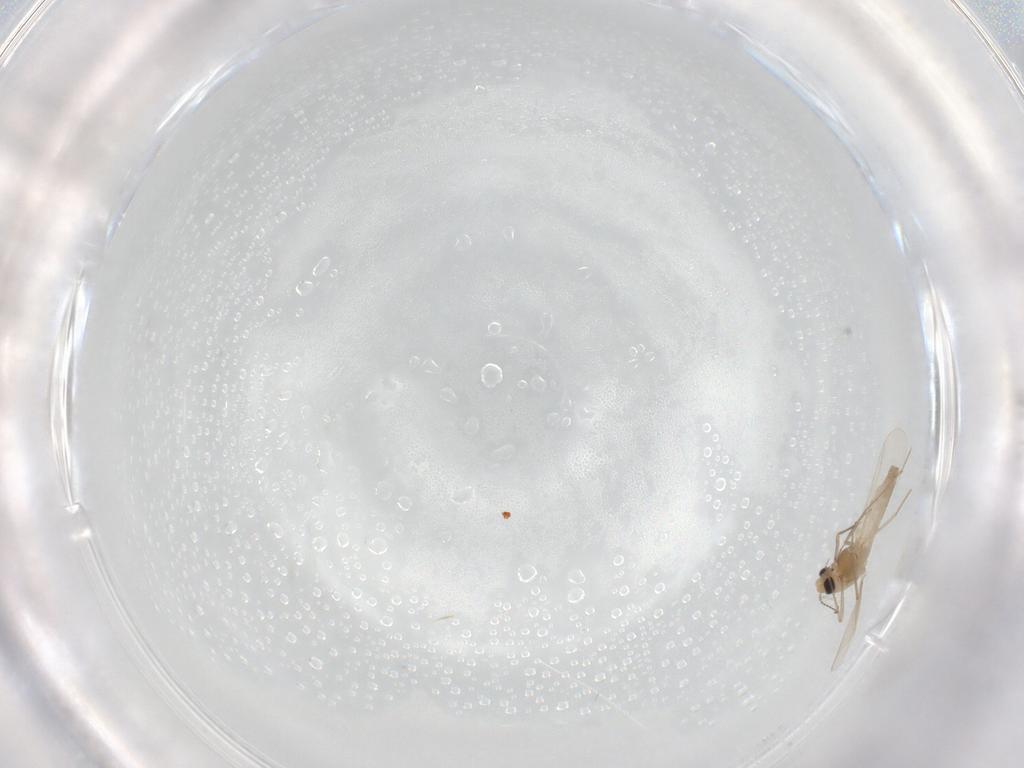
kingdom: Animalia
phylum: Arthropoda
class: Insecta
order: Diptera
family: Chironomidae
